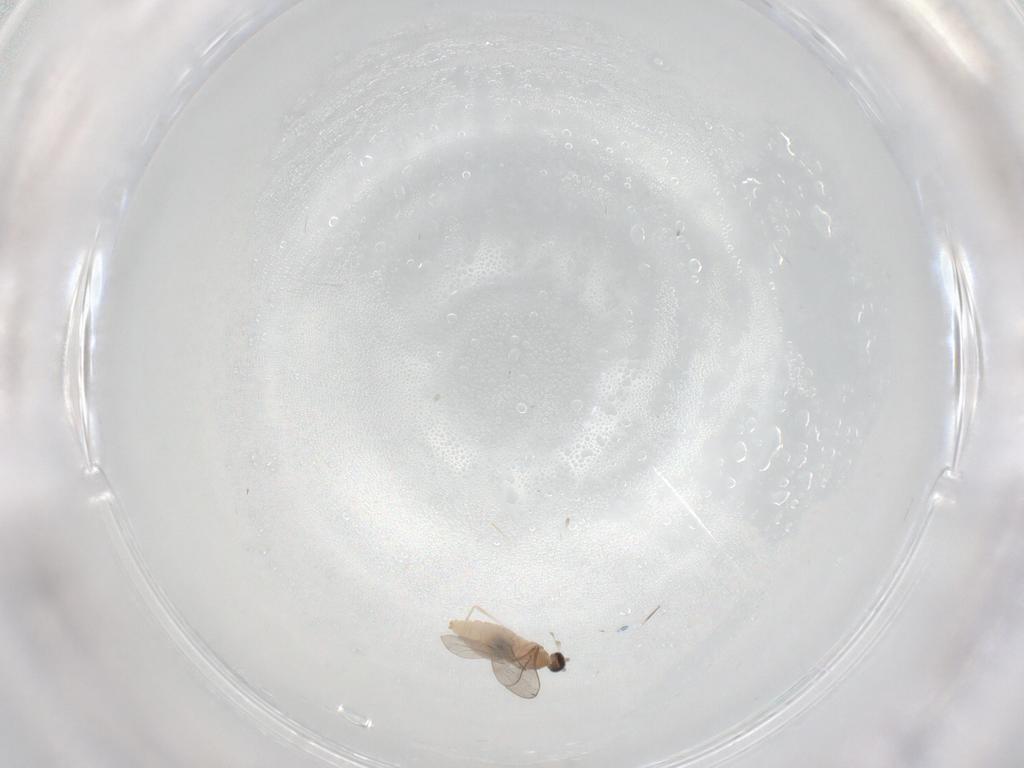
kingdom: Animalia
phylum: Arthropoda
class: Insecta
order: Diptera
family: Cecidomyiidae
